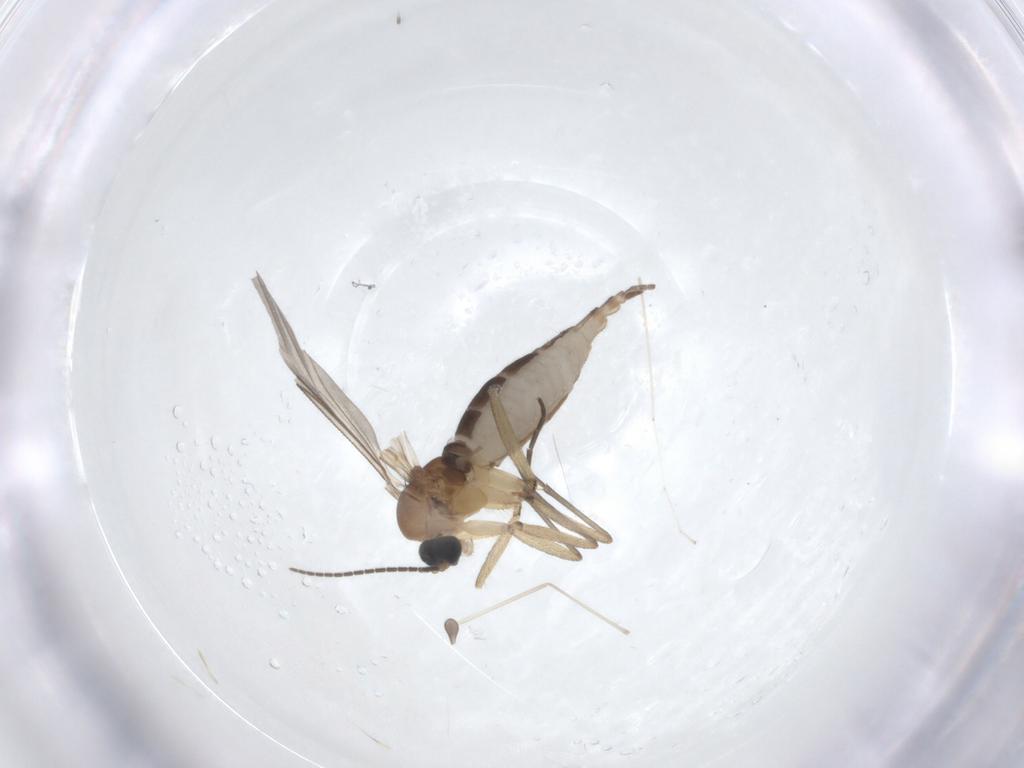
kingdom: Animalia
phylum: Arthropoda
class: Insecta
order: Diptera
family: Sciaridae
